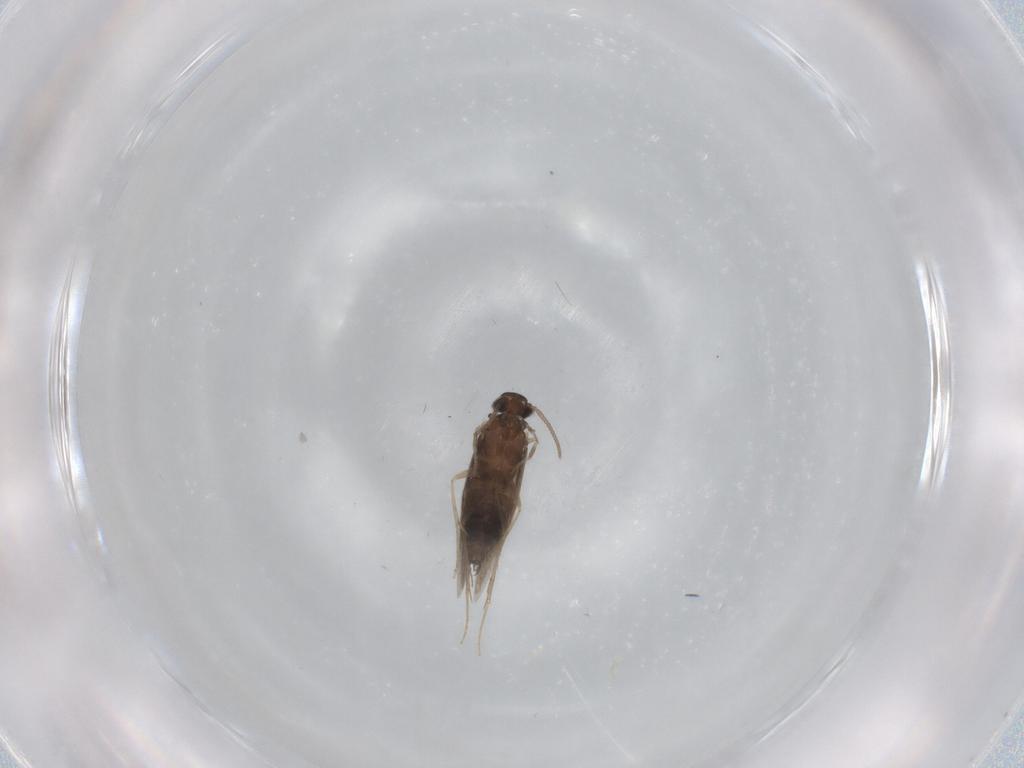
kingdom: Animalia
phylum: Arthropoda
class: Insecta
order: Trichoptera
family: Hydroptilidae
